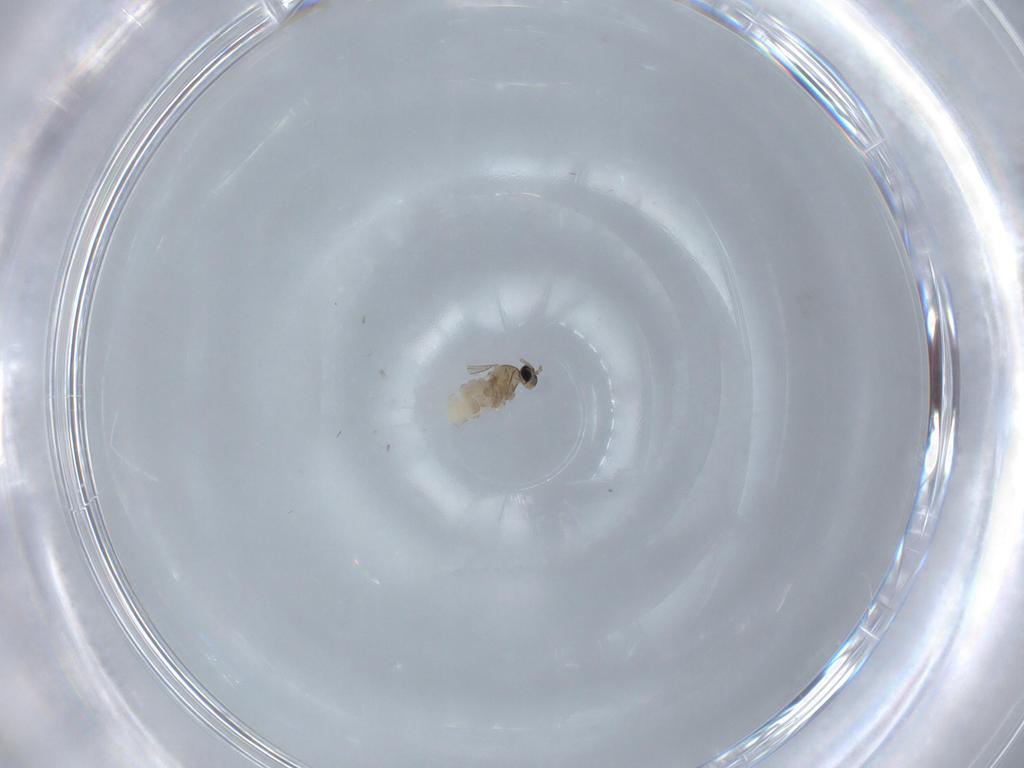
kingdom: Animalia
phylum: Arthropoda
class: Insecta
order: Diptera
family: Cecidomyiidae
